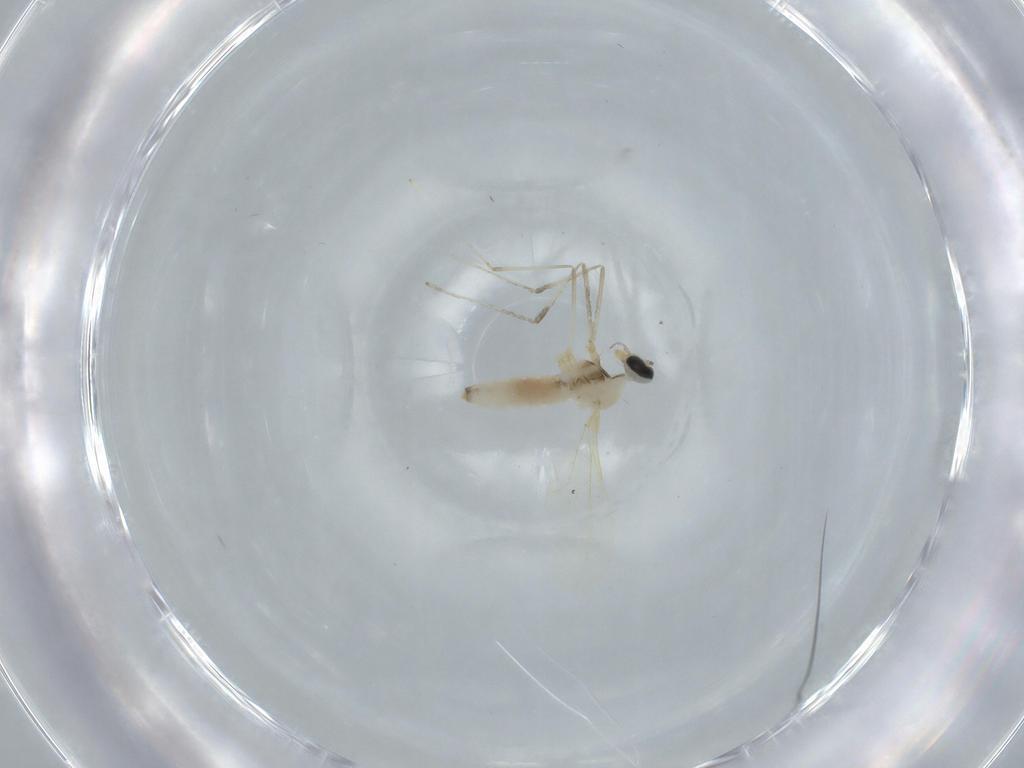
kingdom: Animalia
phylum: Arthropoda
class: Insecta
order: Diptera
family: Cecidomyiidae
